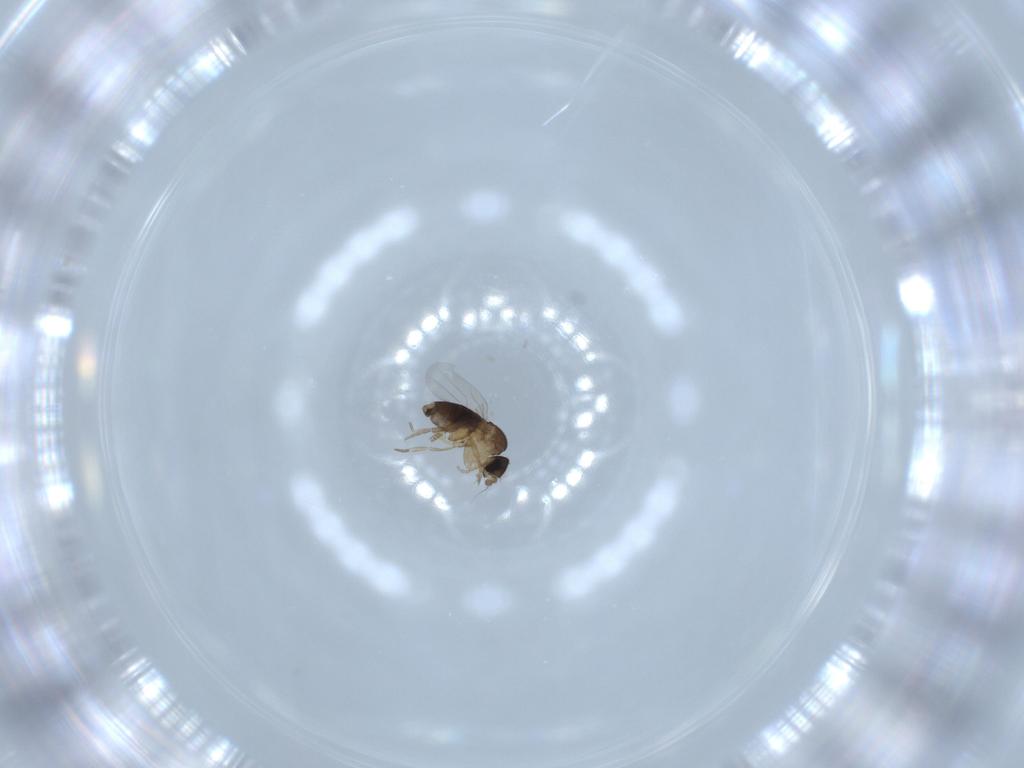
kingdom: Animalia
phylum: Arthropoda
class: Insecta
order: Diptera
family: Phoridae
